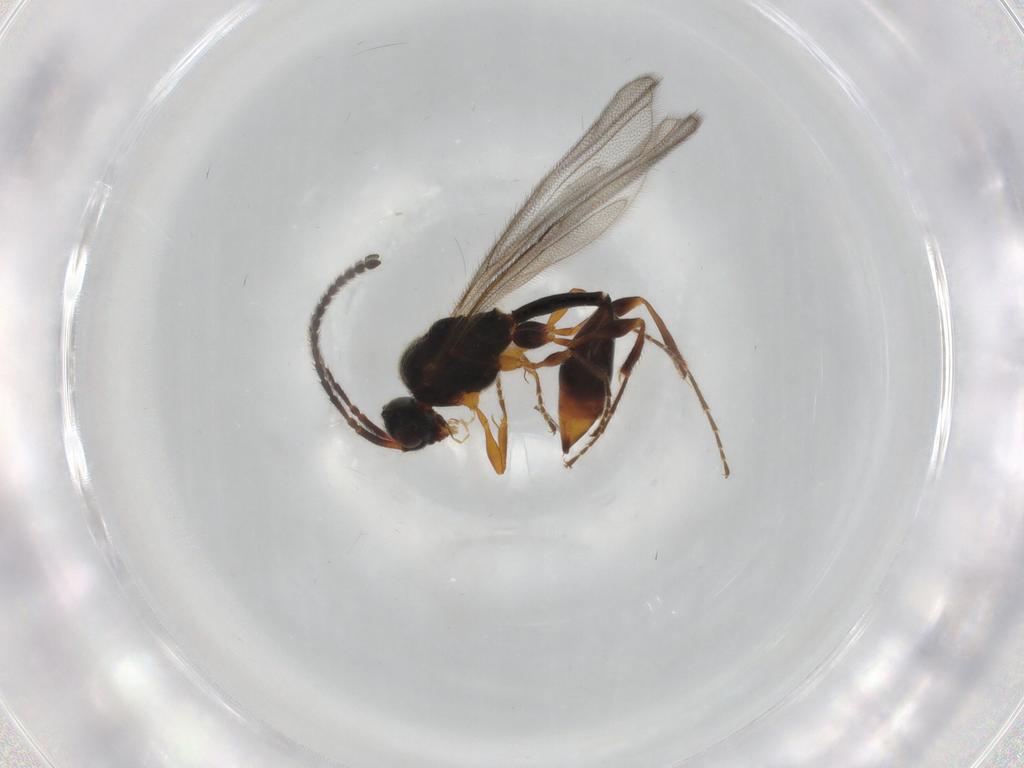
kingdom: Animalia
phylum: Arthropoda
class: Insecta
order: Hymenoptera
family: Diapriidae
